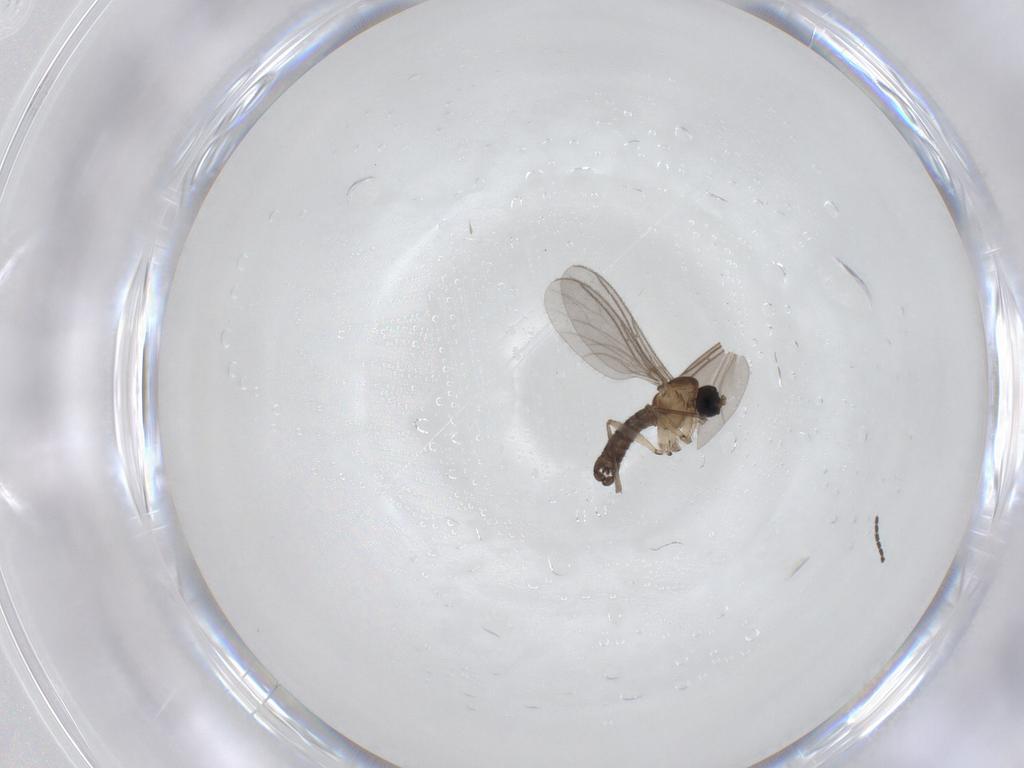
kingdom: Animalia
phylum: Arthropoda
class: Insecta
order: Diptera
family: Sciaridae
